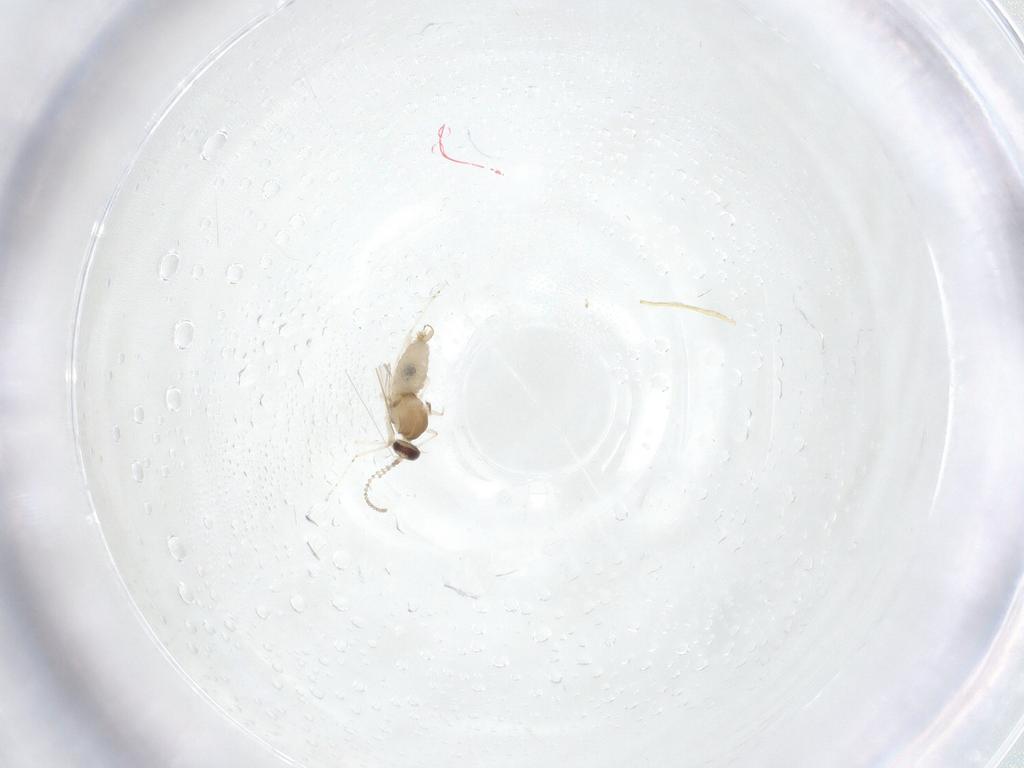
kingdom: Animalia
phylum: Arthropoda
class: Insecta
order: Diptera
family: Cecidomyiidae
